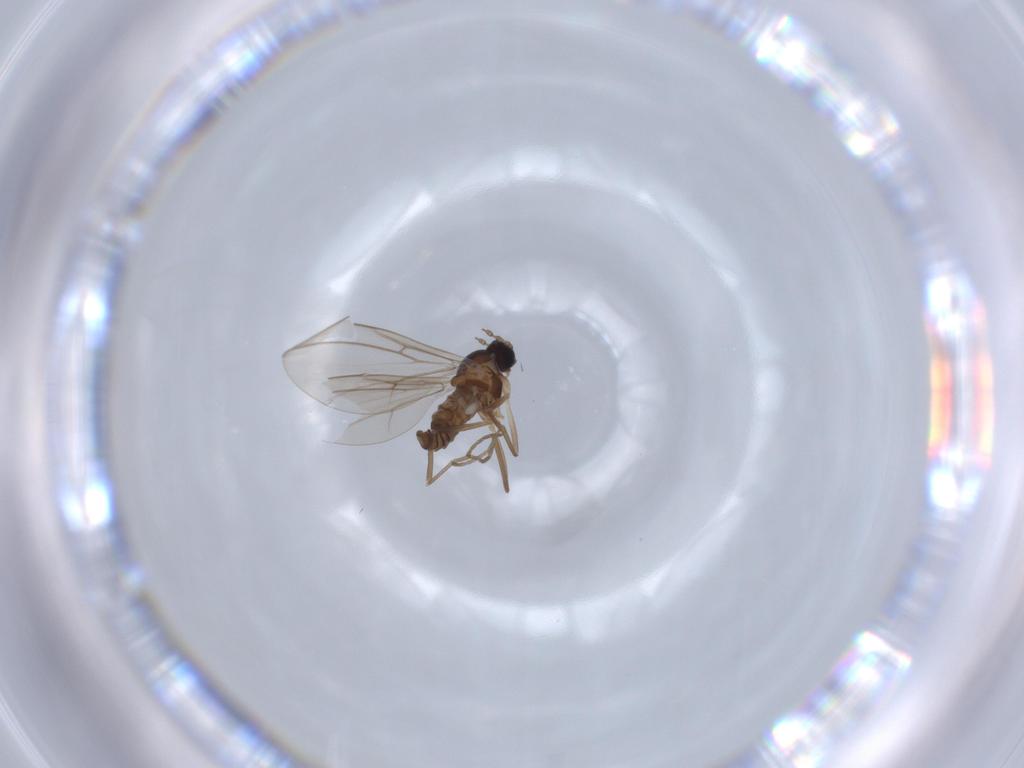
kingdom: Animalia
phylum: Arthropoda
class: Insecta
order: Diptera
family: Cecidomyiidae
